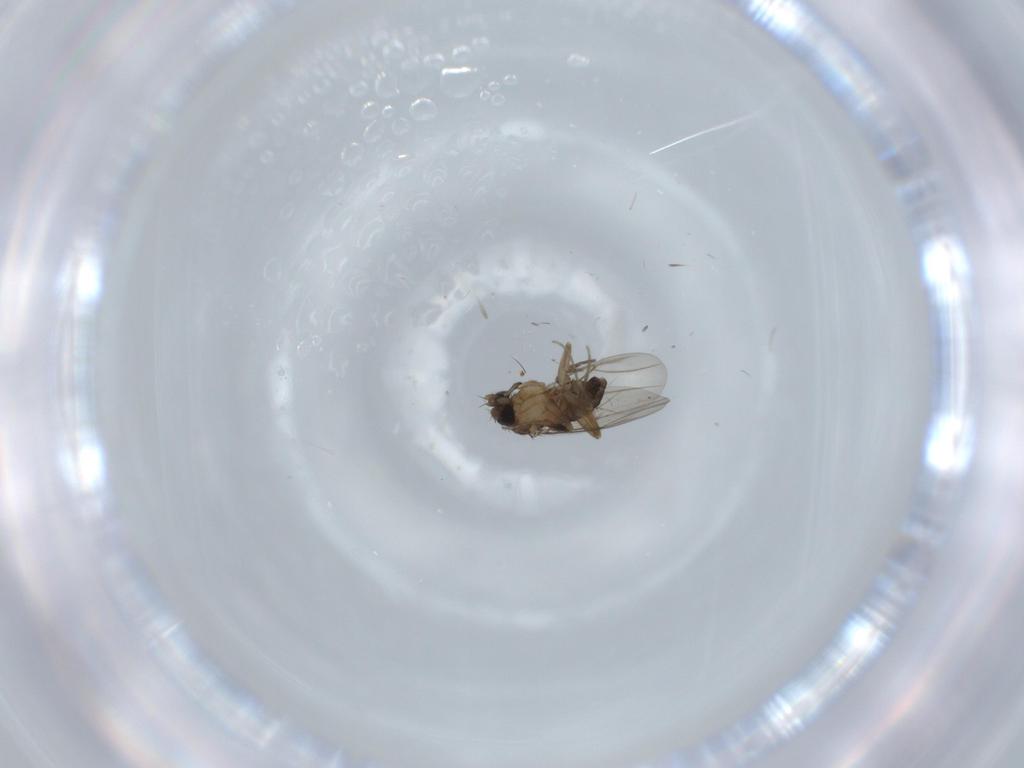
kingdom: Animalia
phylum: Arthropoda
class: Insecta
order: Diptera
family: Phoridae
